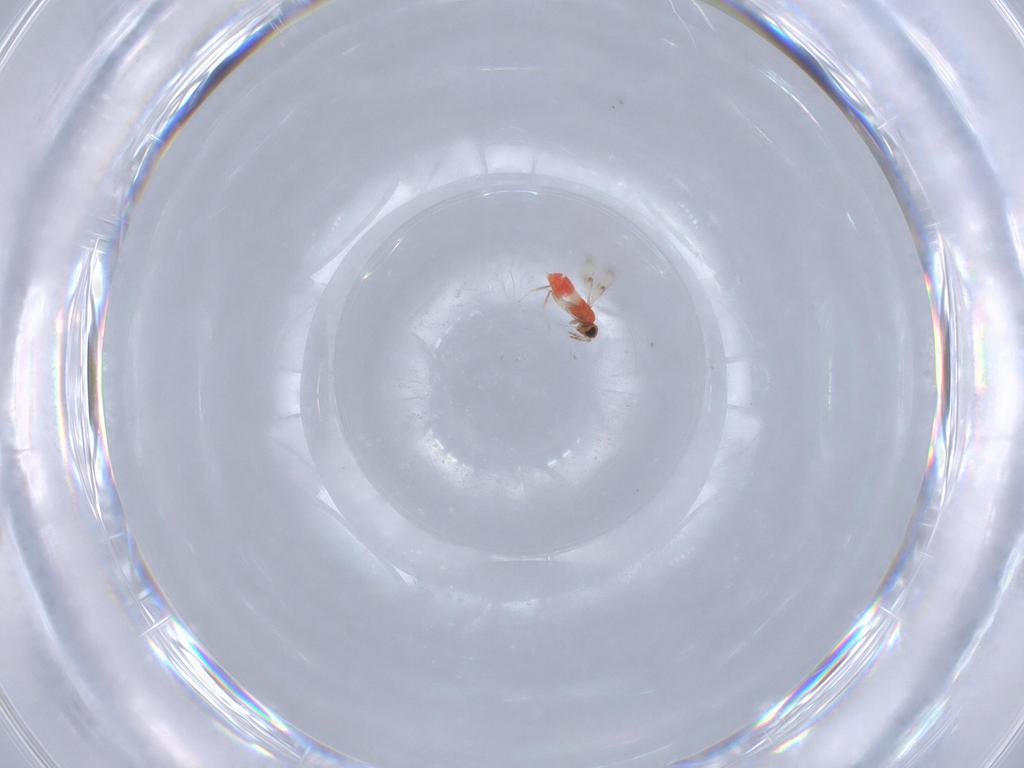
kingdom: Animalia
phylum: Arthropoda
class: Insecta
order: Hymenoptera
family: Trichogrammatidae
